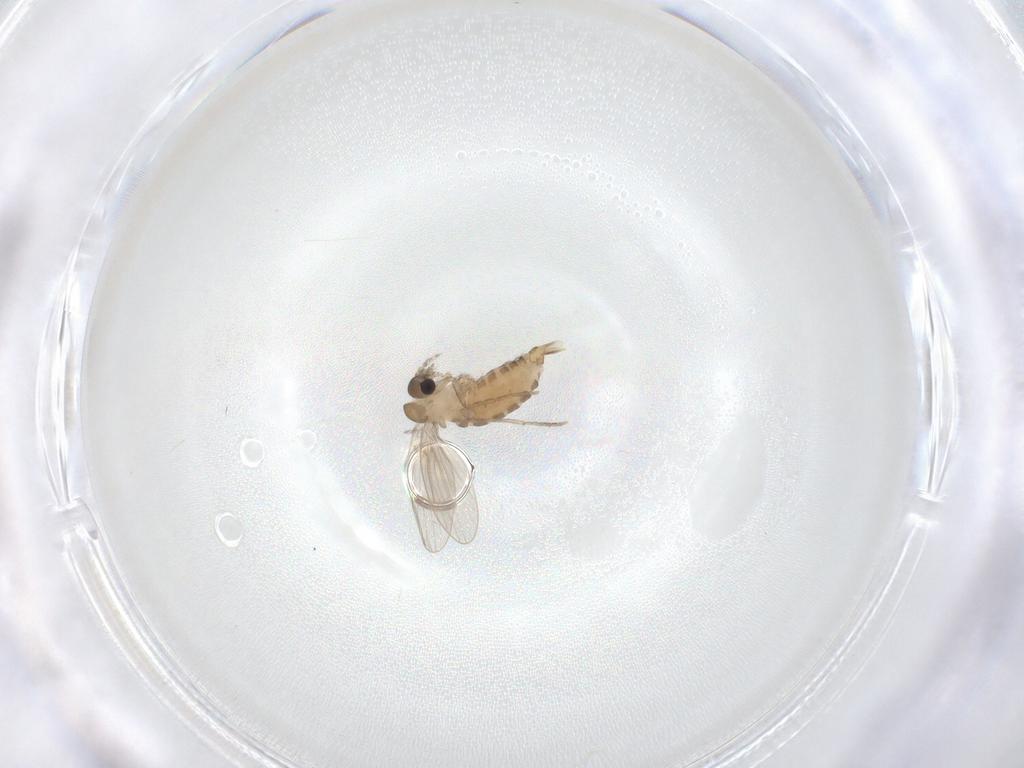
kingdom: Animalia
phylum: Arthropoda
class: Insecta
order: Diptera
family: Psychodidae
